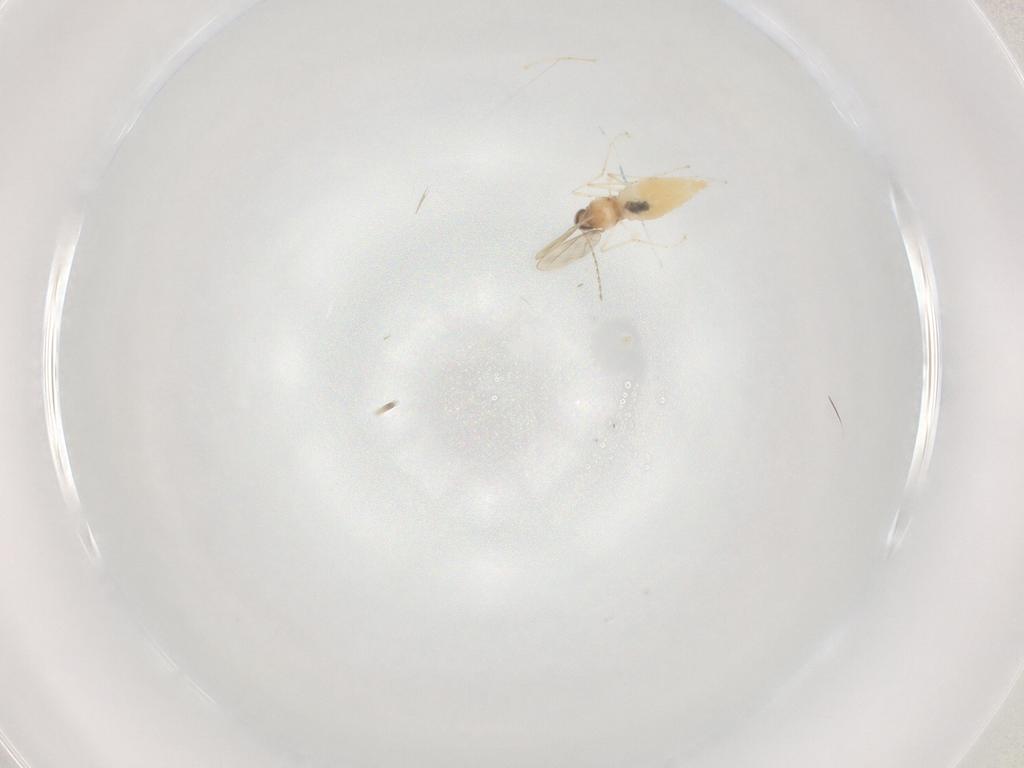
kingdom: Animalia
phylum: Arthropoda
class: Insecta
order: Diptera
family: Cecidomyiidae
